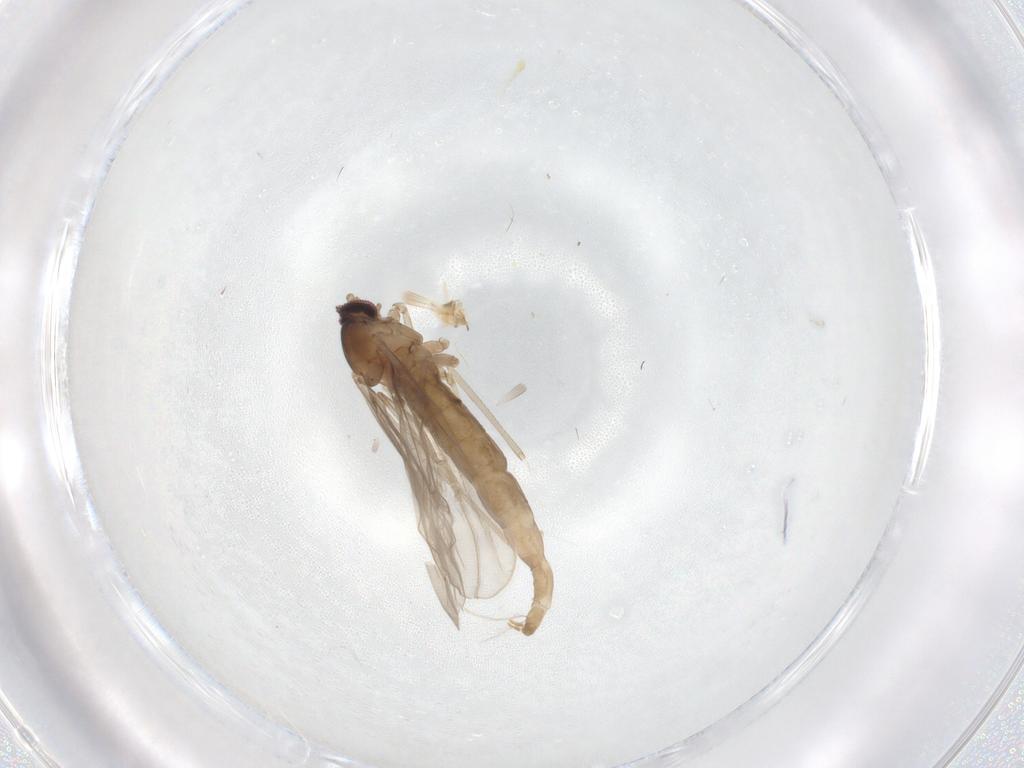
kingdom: Animalia
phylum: Arthropoda
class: Insecta
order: Diptera
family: Cecidomyiidae
